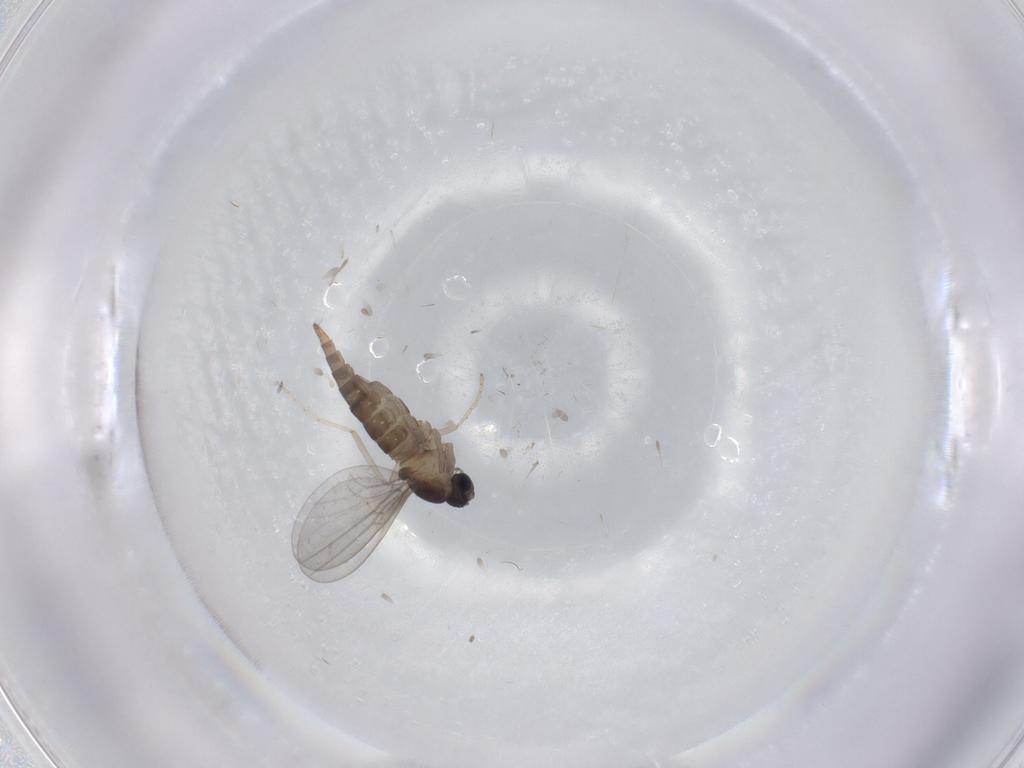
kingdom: Animalia
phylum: Arthropoda
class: Insecta
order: Diptera
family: Cecidomyiidae
